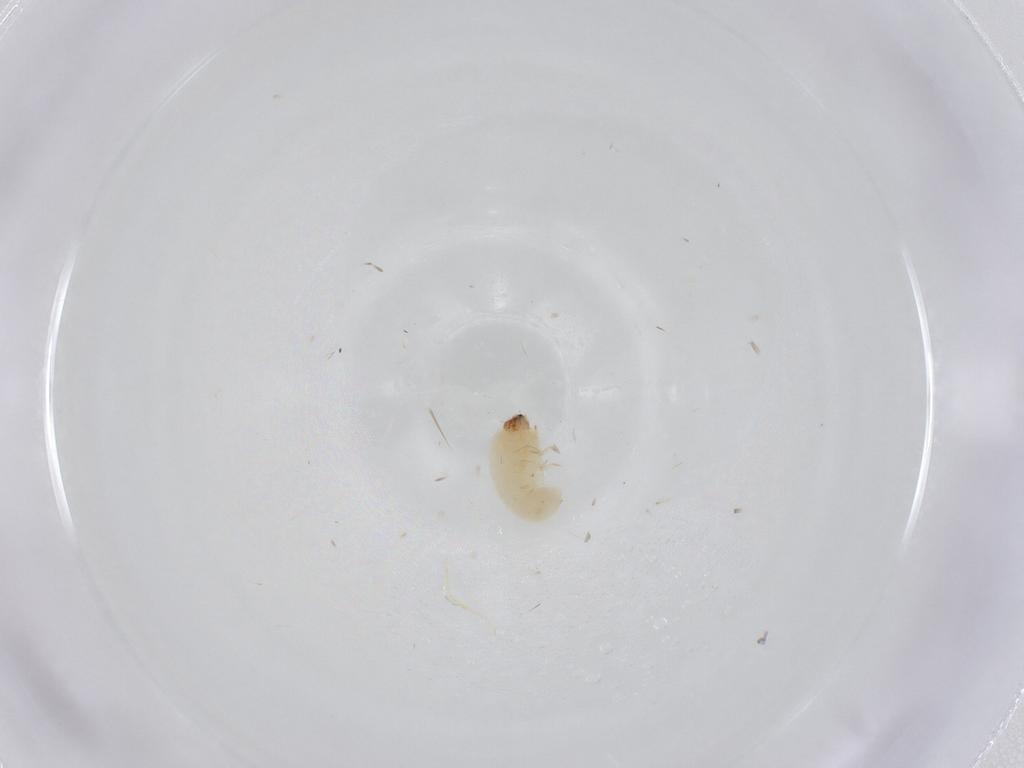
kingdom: Animalia
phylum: Arthropoda
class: Insecta
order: Coleoptera
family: Bostrichidae
